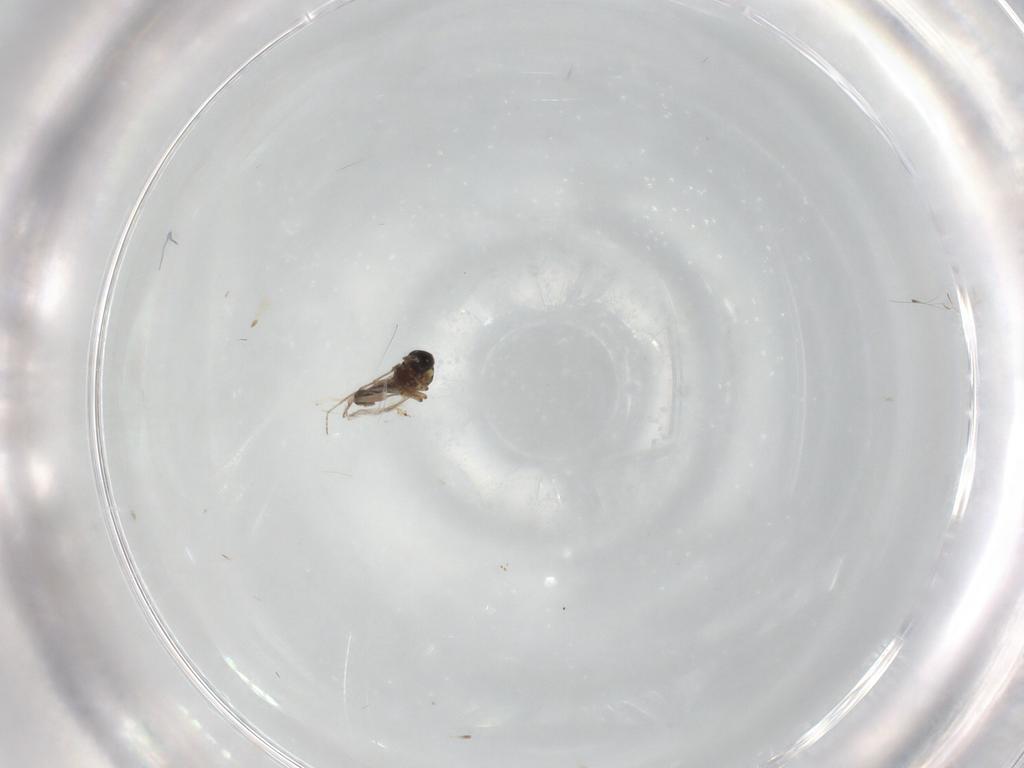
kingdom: Animalia
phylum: Arthropoda
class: Insecta
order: Diptera
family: Ceratopogonidae
